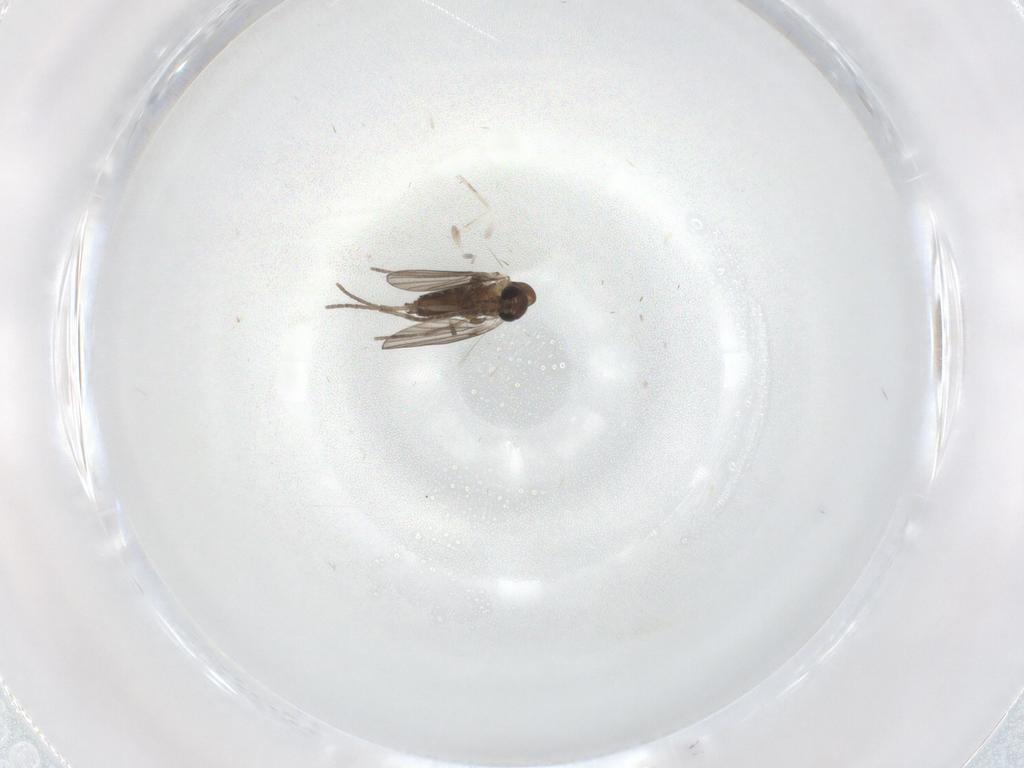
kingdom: Animalia
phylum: Arthropoda
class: Insecta
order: Diptera
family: Cecidomyiidae
